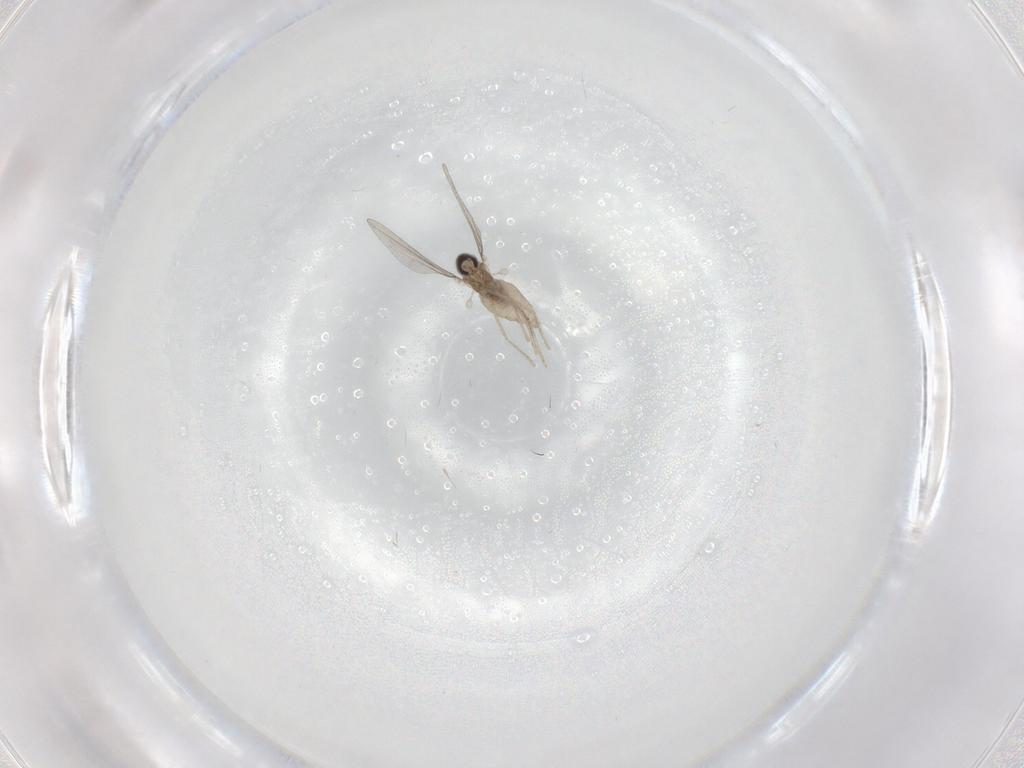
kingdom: Animalia
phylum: Arthropoda
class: Insecta
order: Diptera
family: Cecidomyiidae
